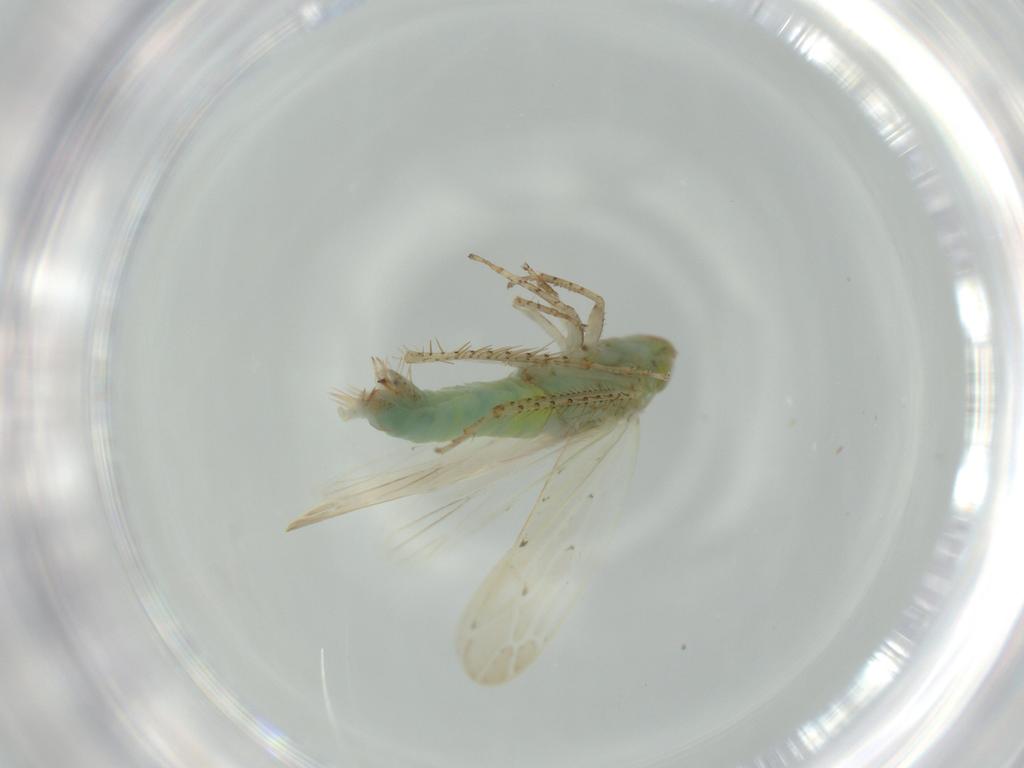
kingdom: Animalia
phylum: Arthropoda
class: Insecta
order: Hemiptera
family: Cicadellidae
